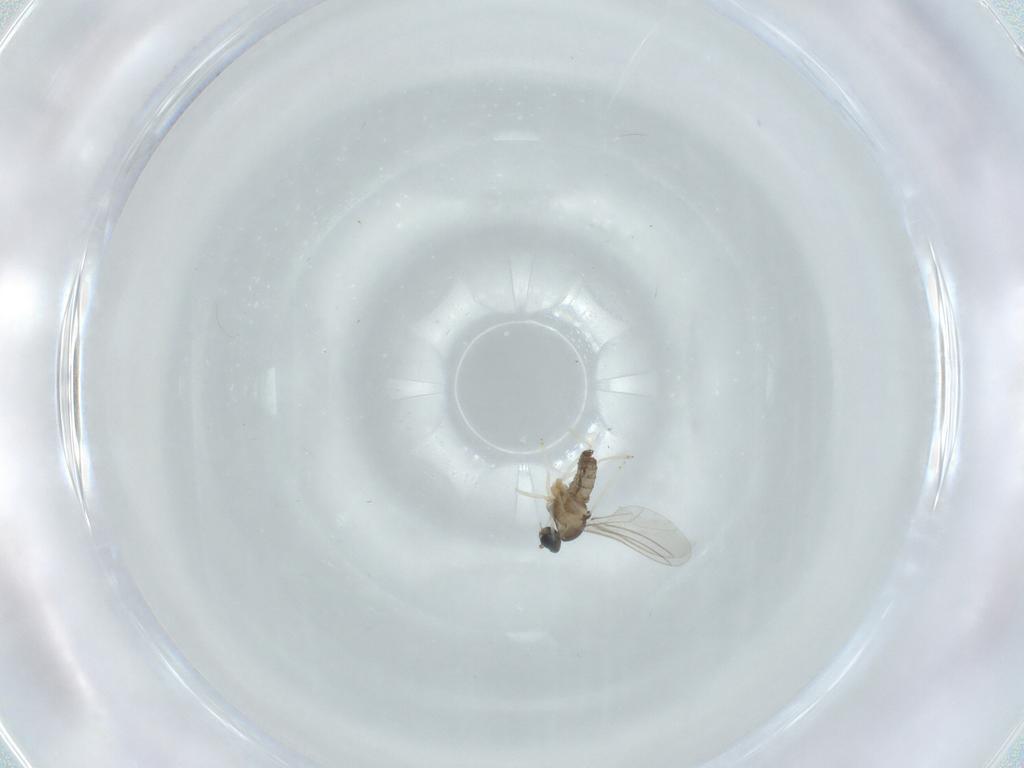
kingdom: Animalia
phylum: Arthropoda
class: Insecta
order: Diptera
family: Cecidomyiidae
